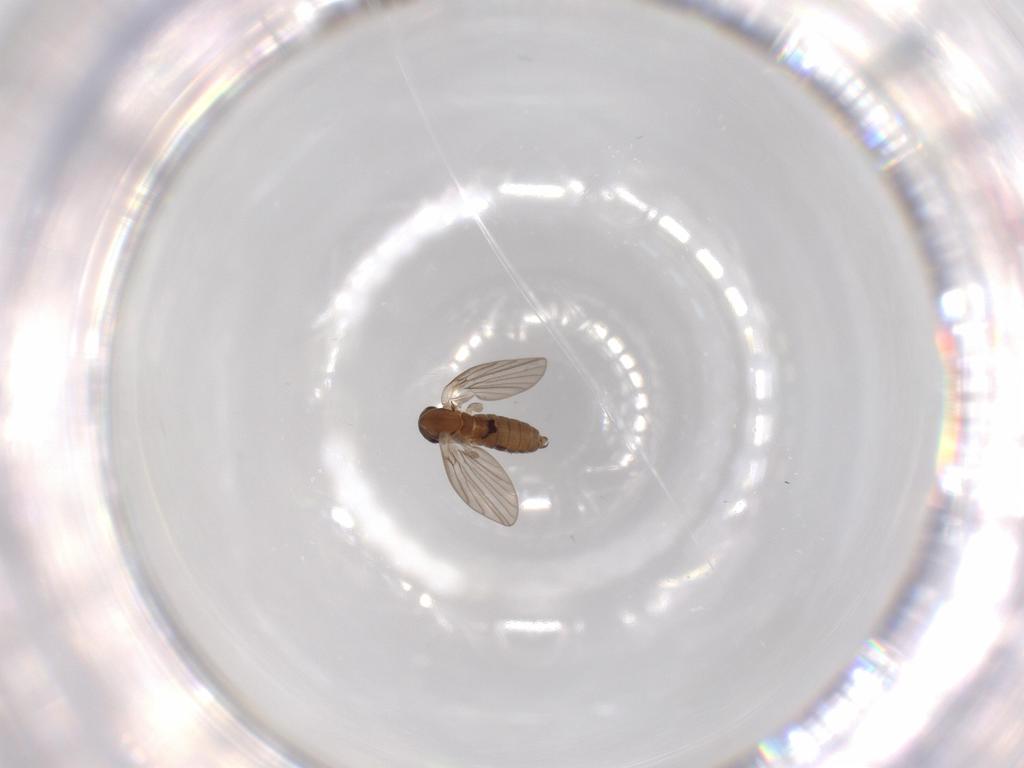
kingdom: Animalia
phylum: Arthropoda
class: Insecta
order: Diptera
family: Psychodidae
